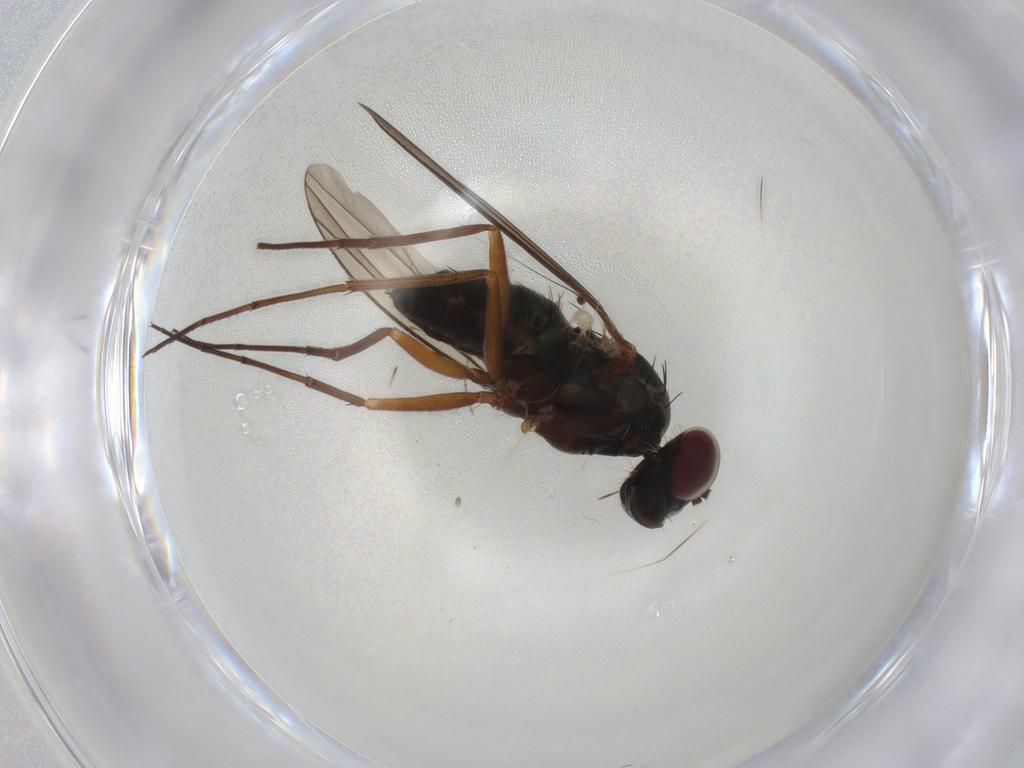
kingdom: Animalia
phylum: Arthropoda
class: Insecta
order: Diptera
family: Dolichopodidae
